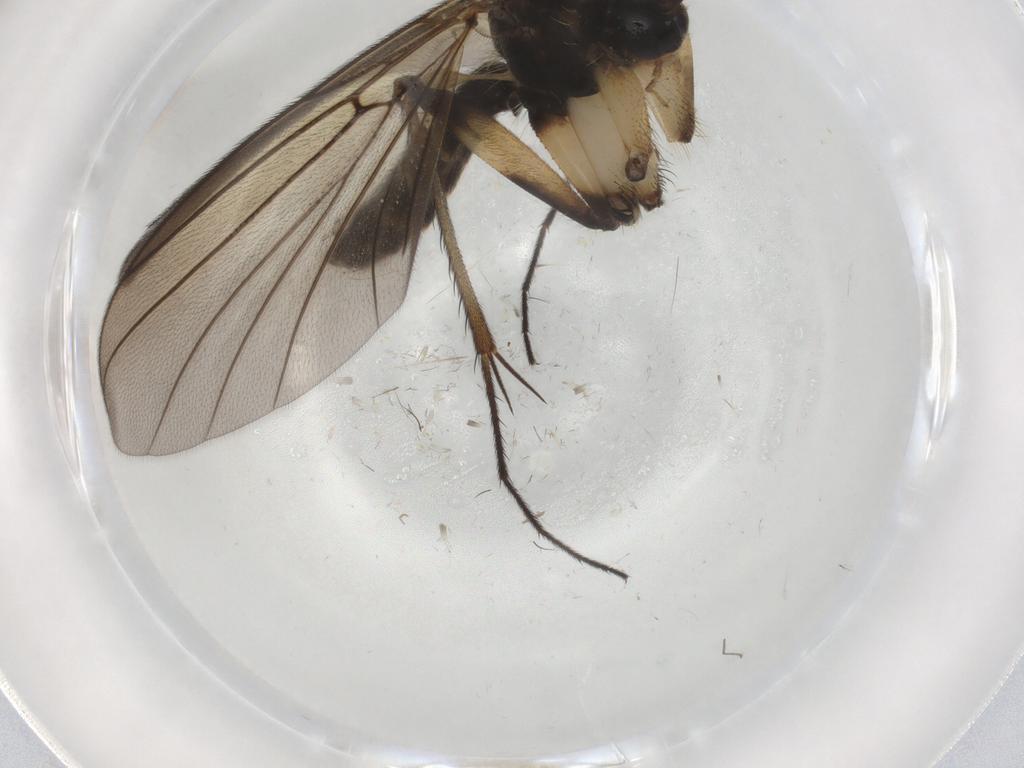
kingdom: Animalia
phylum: Arthropoda
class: Insecta
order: Diptera
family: Mycetophilidae
